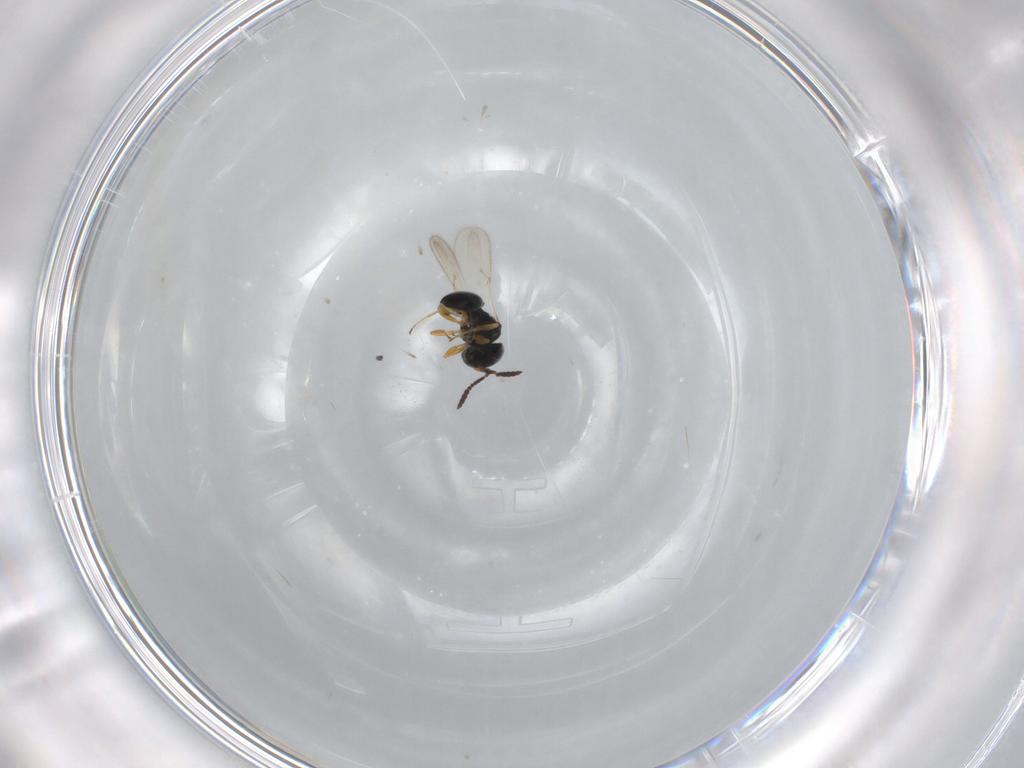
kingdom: Animalia
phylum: Arthropoda
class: Insecta
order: Hymenoptera
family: Scelionidae
